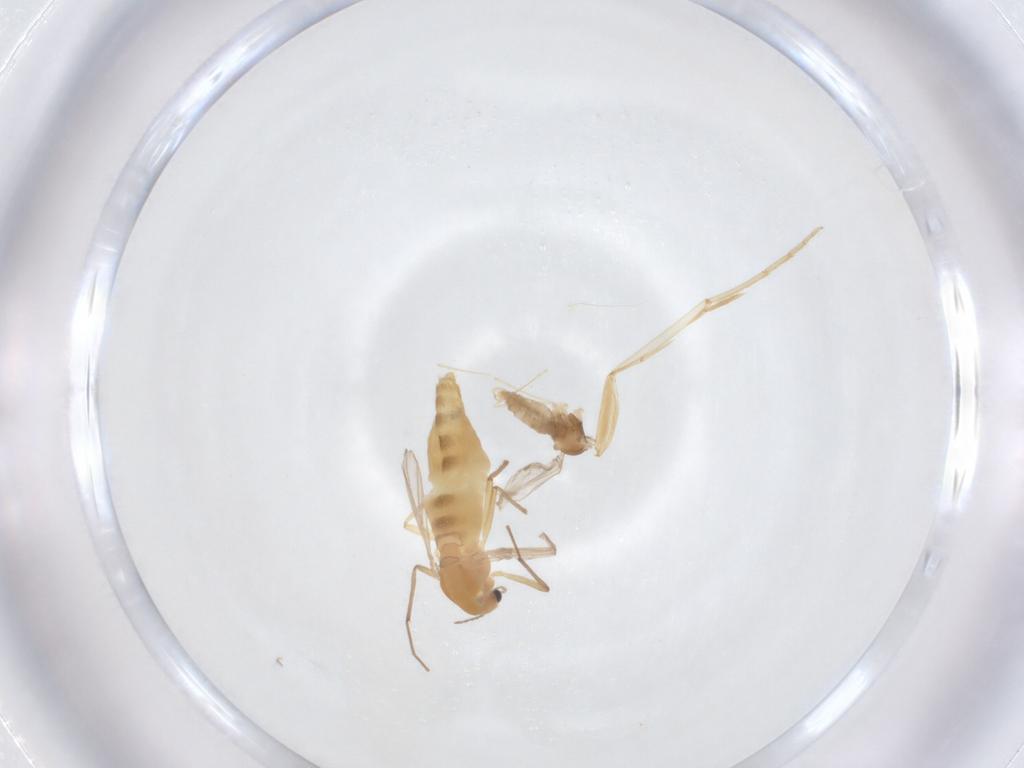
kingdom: Animalia
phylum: Arthropoda
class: Insecta
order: Diptera
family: Chironomidae
